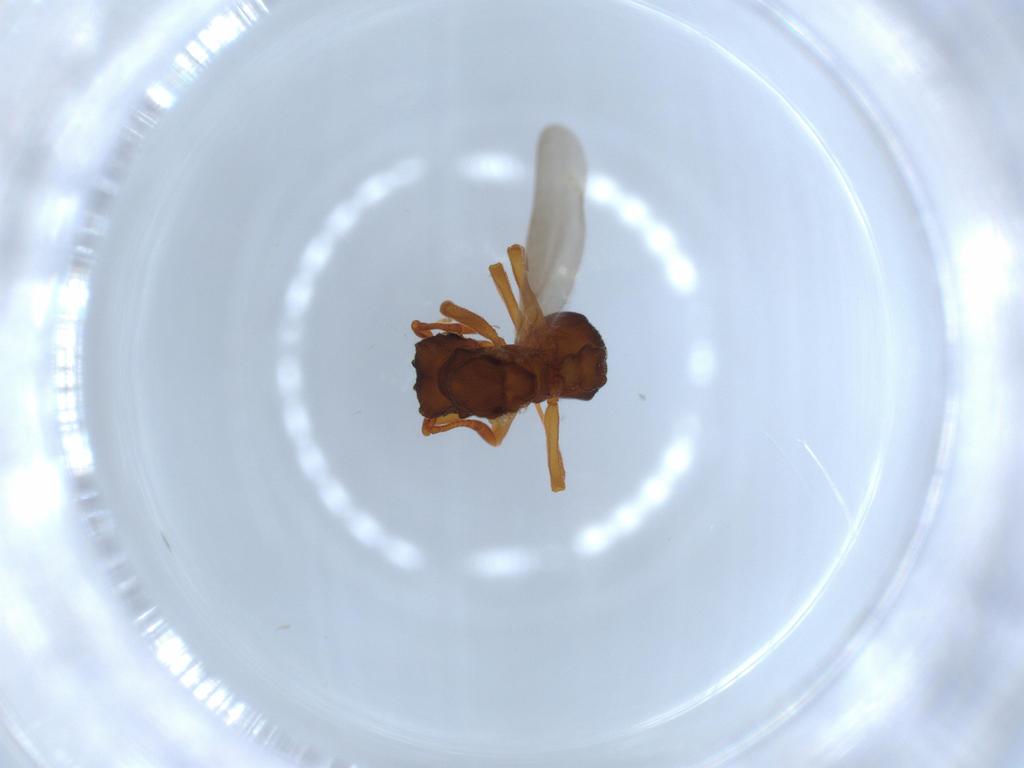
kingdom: Animalia
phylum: Arthropoda
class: Insecta
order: Hymenoptera
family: Formicidae
